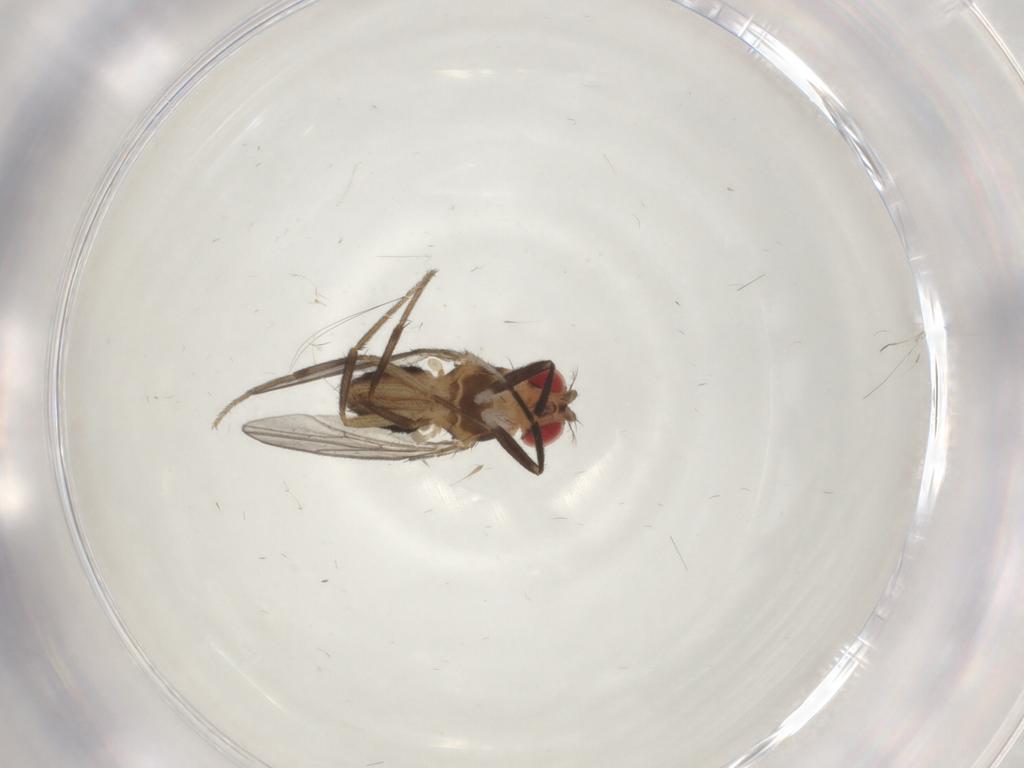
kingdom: Animalia
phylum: Arthropoda
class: Insecta
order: Diptera
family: Drosophilidae
